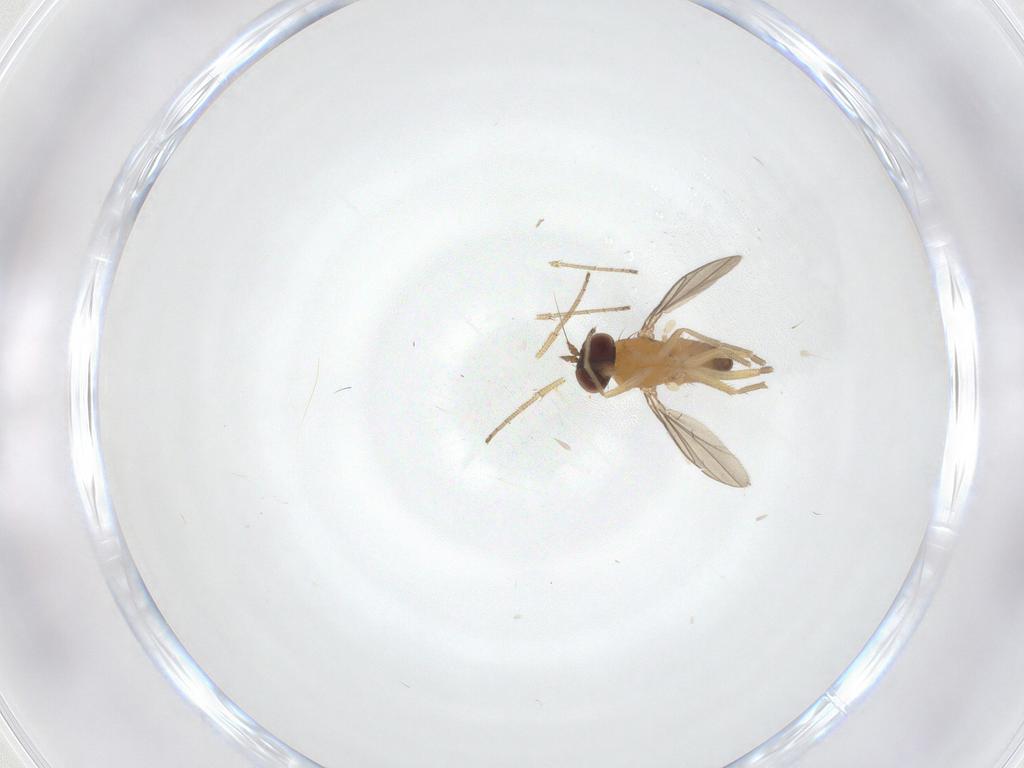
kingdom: Animalia
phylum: Arthropoda
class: Insecta
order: Diptera
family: Dolichopodidae
